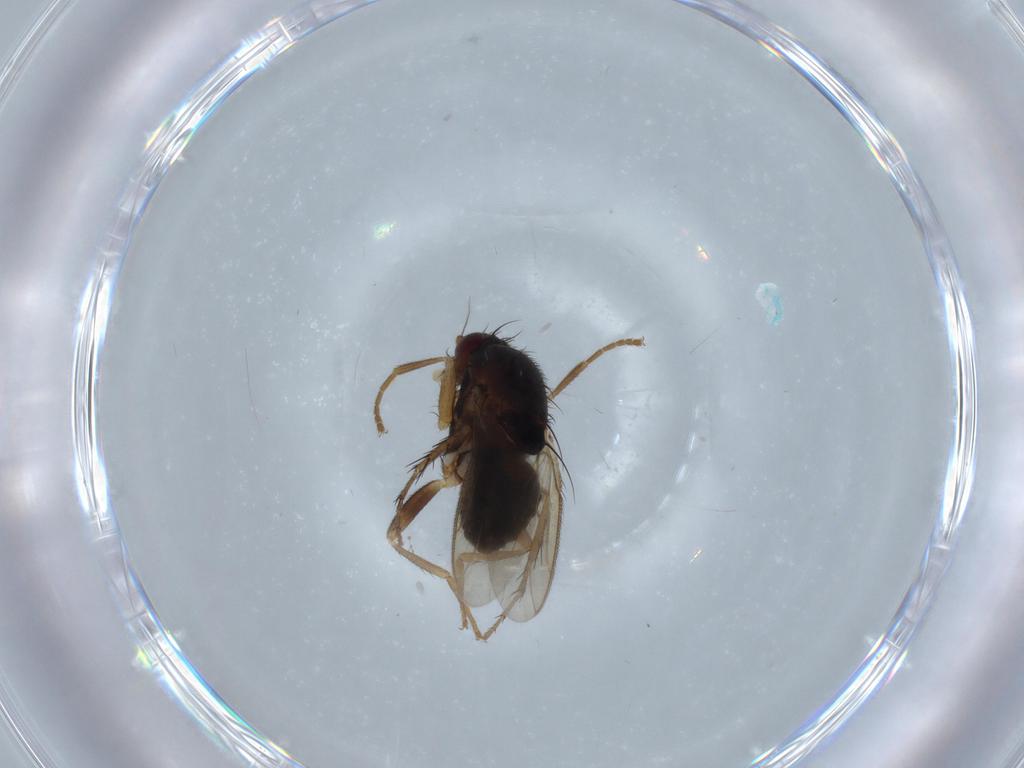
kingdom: Animalia
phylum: Arthropoda
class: Insecta
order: Diptera
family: Sphaeroceridae
